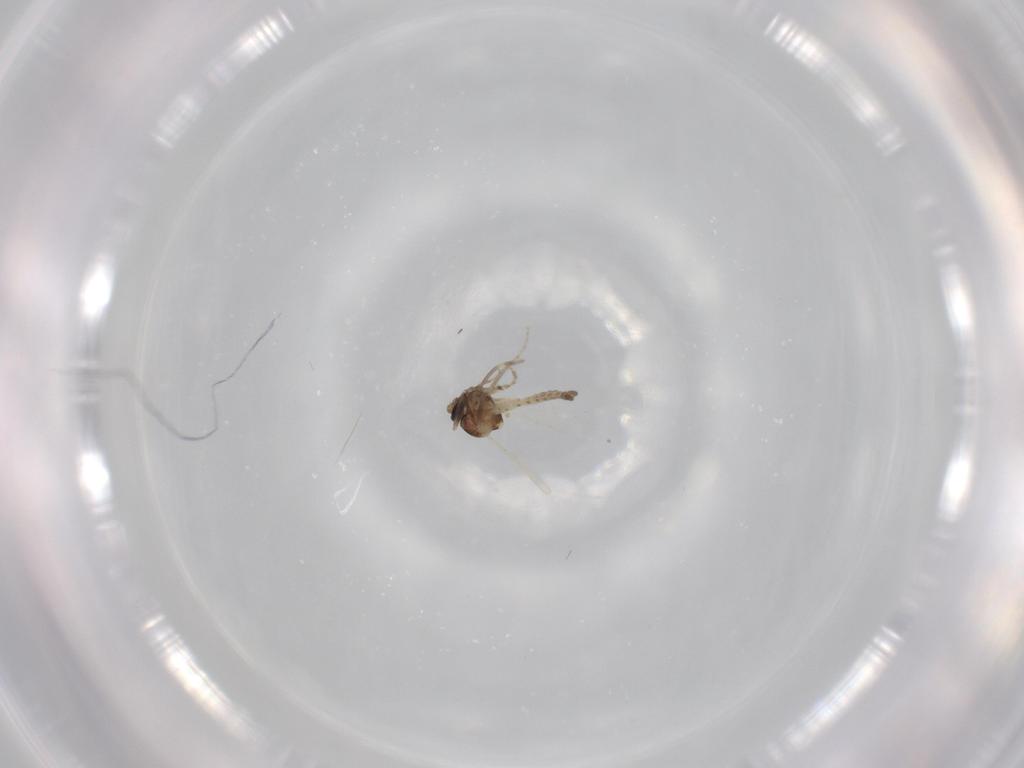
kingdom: Animalia
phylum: Arthropoda
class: Insecta
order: Diptera
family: Ceratopogonidae
